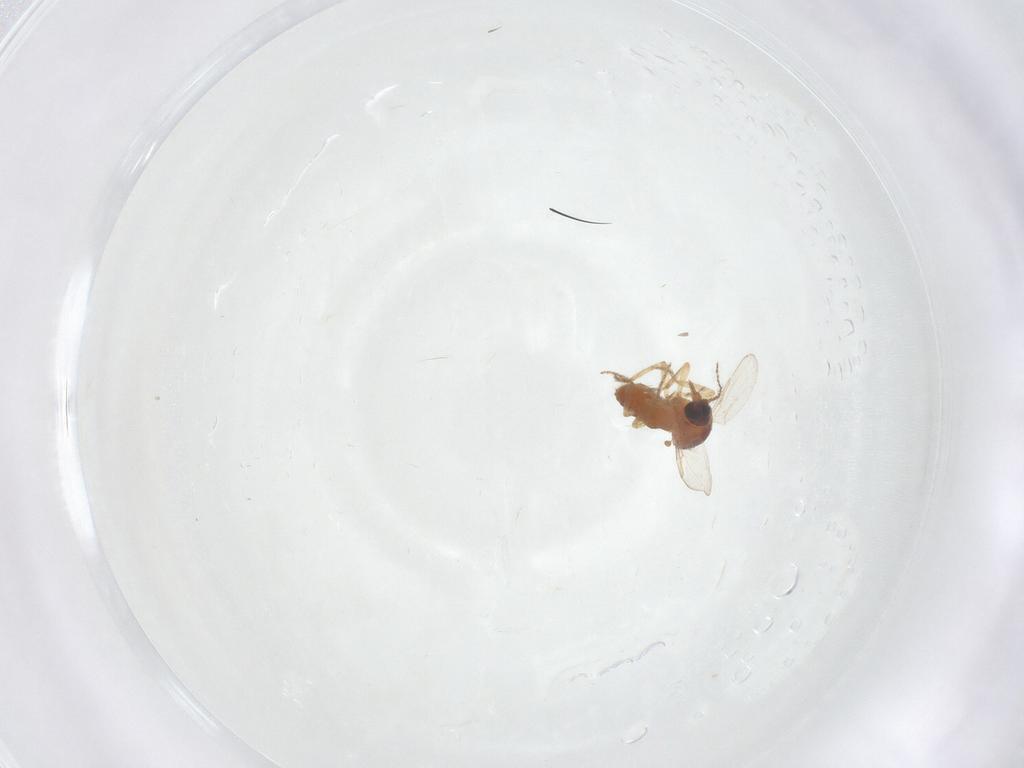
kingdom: Animalia
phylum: Arthropoda
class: Insecta
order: Diptera
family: Ceratopogonidae
